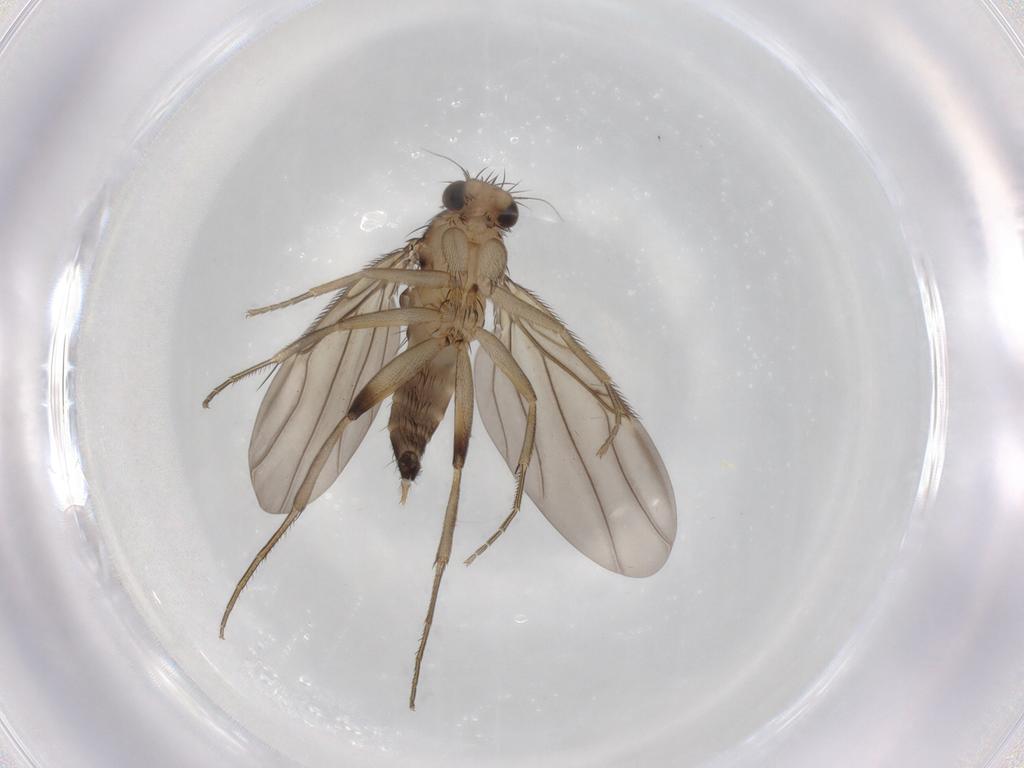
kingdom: Animalia
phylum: Arthropoda
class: Insecta
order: Diptera
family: Phoridae
